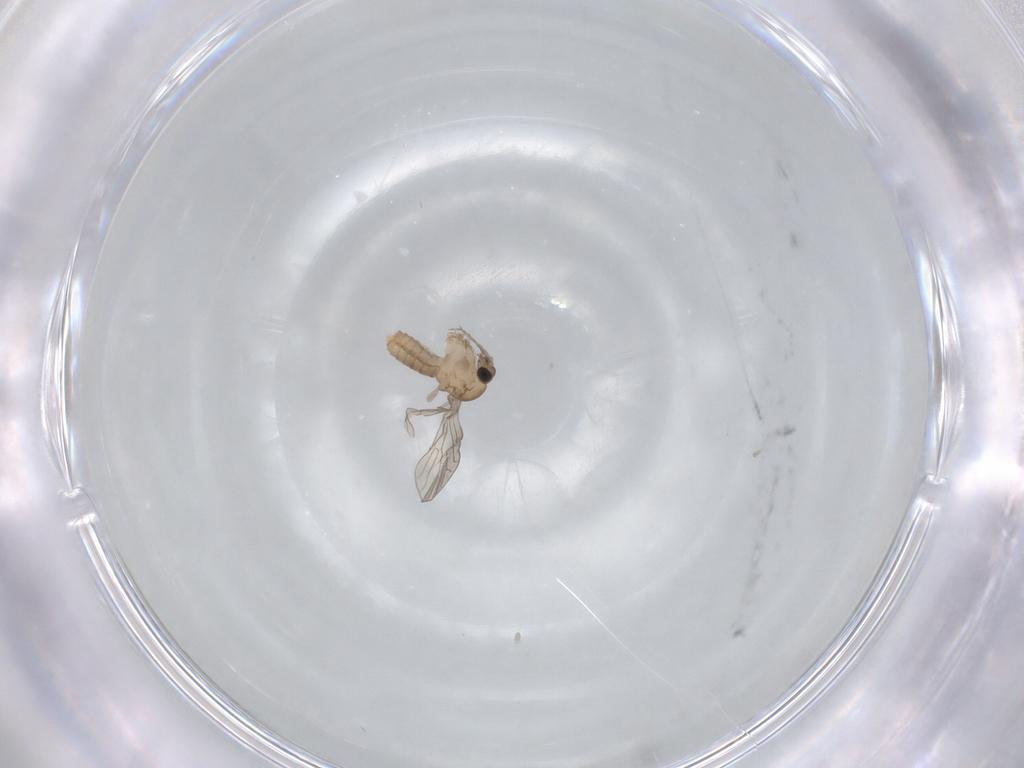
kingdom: Animalia
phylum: Arthropoda
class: Insecta
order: Diptera
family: Psychodidae
